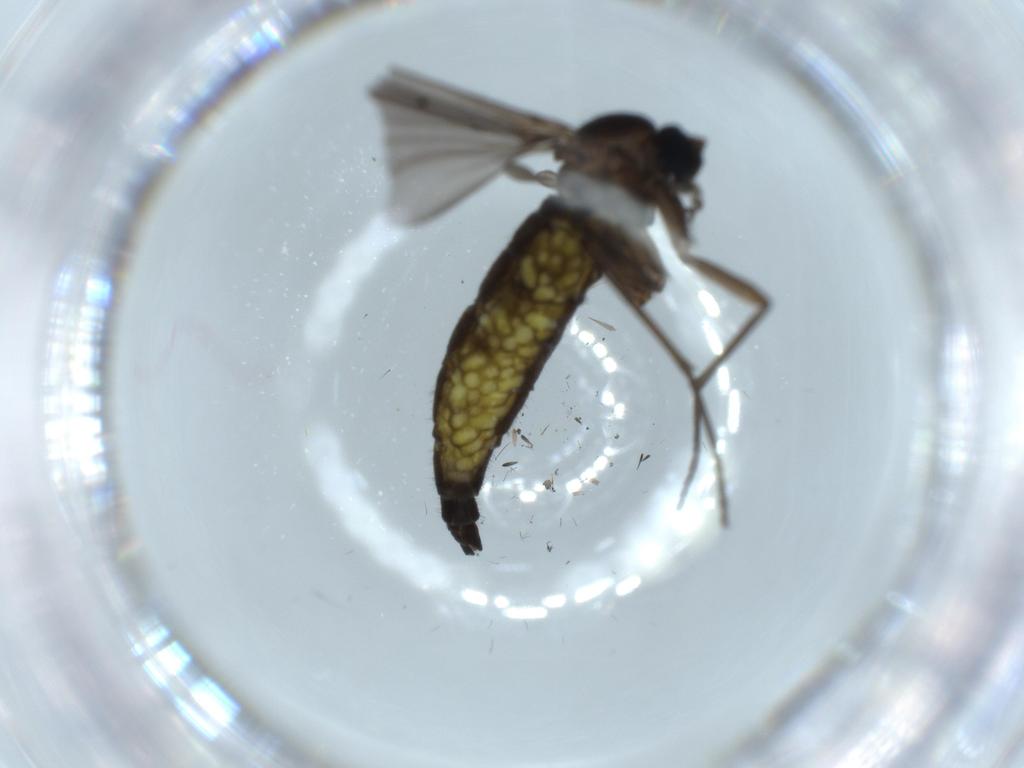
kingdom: Animalia
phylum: Arthropoda
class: Insecta
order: Diptera
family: Sciaridae
